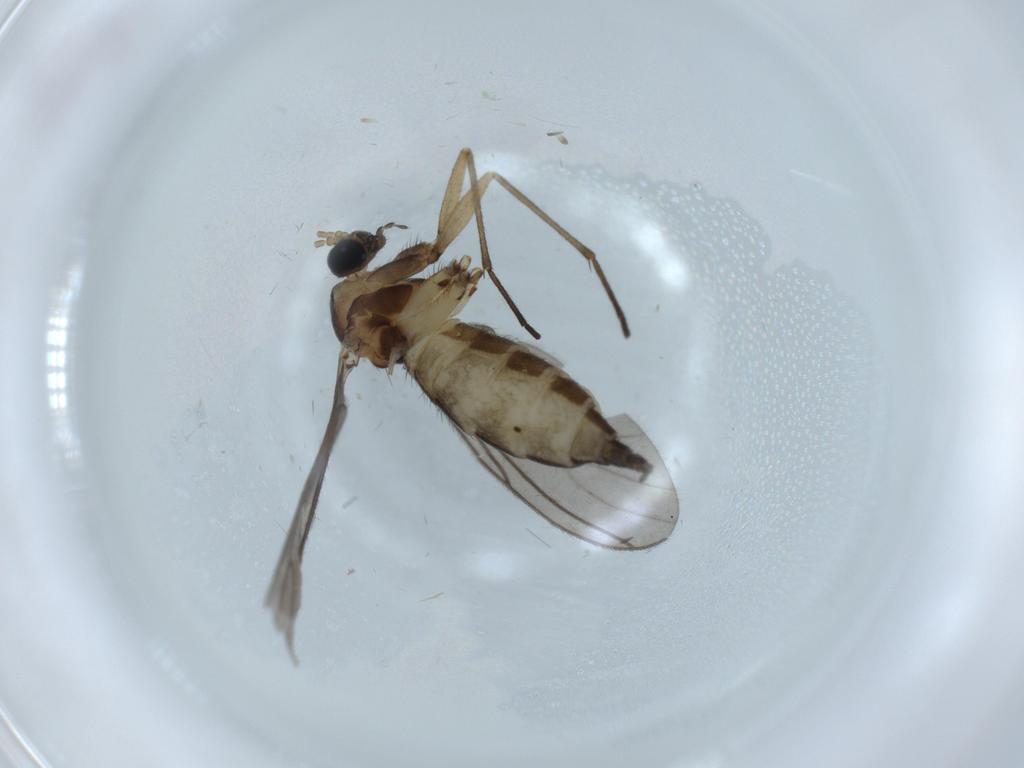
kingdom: Animalia
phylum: Arthropoda
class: Insecta
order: Diptera
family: Sciaridae
